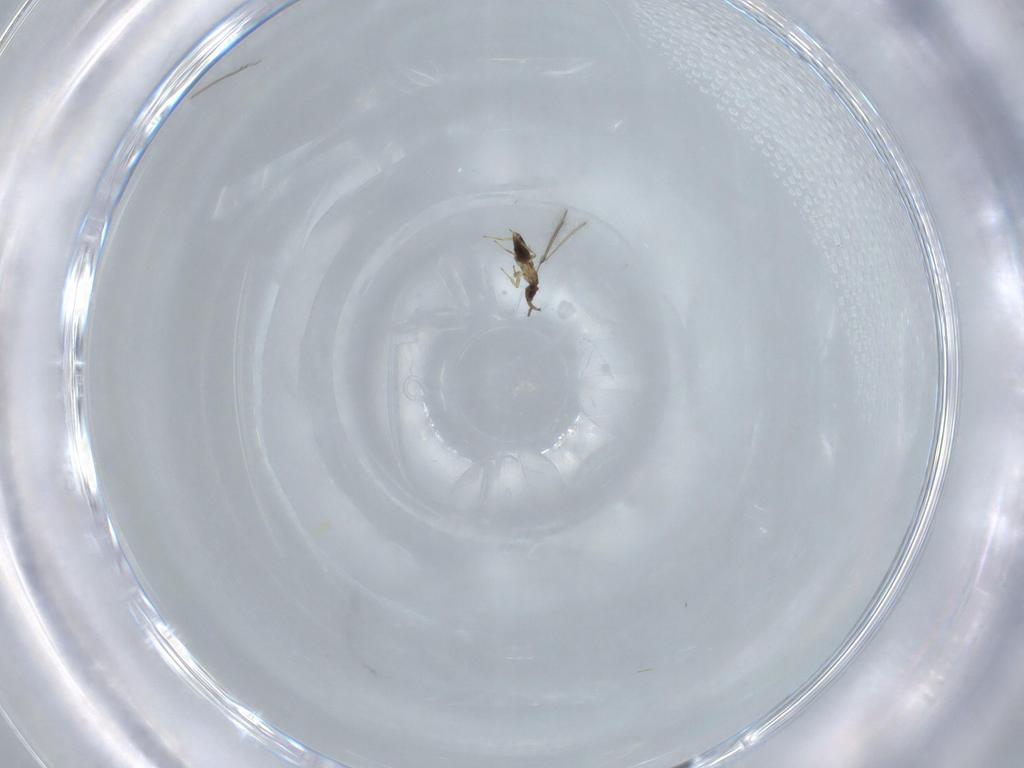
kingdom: Animalia
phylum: Arthropoda
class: Insecta
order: Hymenoptera
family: Mymaridae
